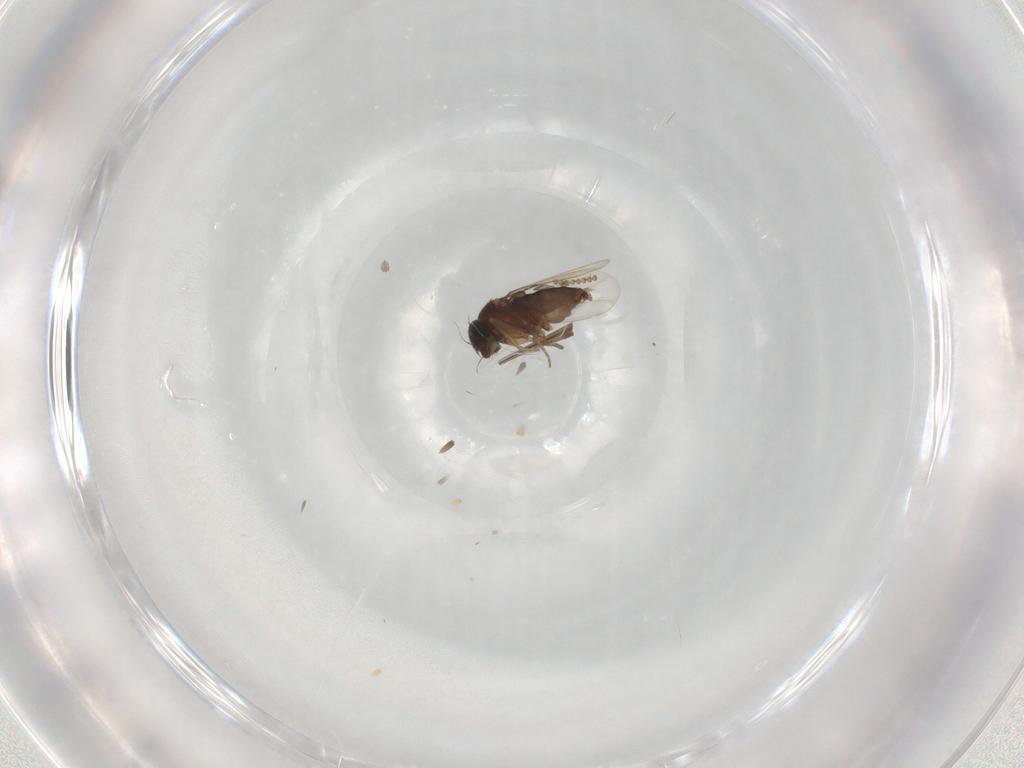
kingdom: Animalia
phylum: Arthropoda
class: Insecta
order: Diptera
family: Phoridae
